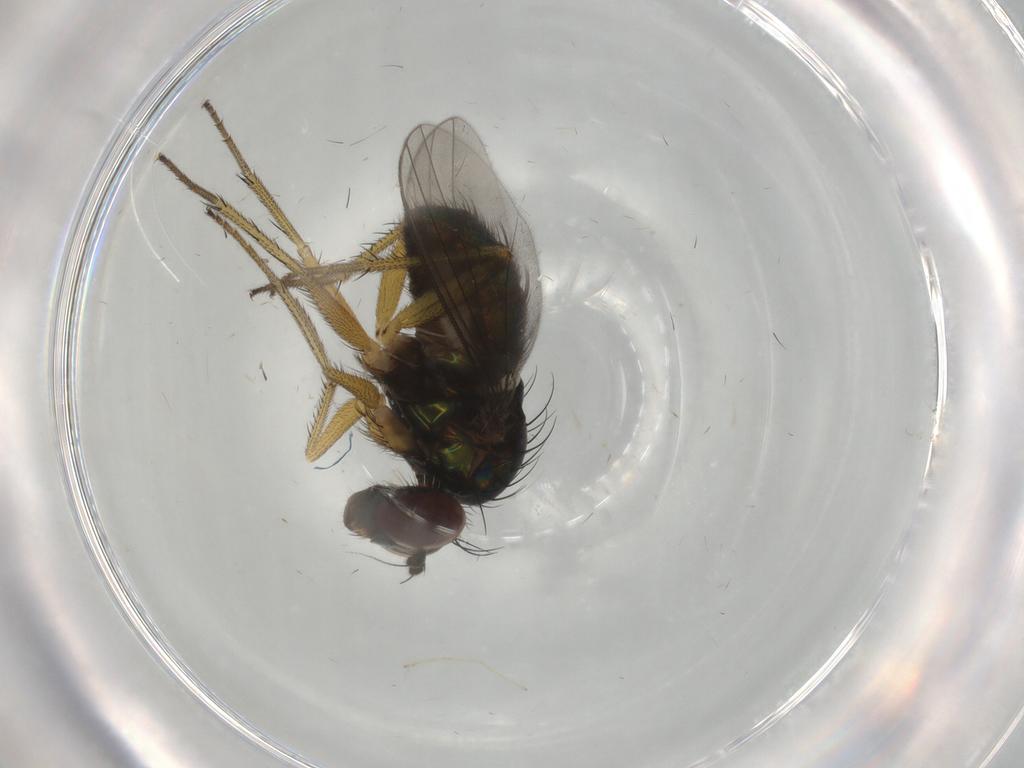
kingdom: Animalia
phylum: Arthropoda
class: Insecta
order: Diptera
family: Dolichopodidae
